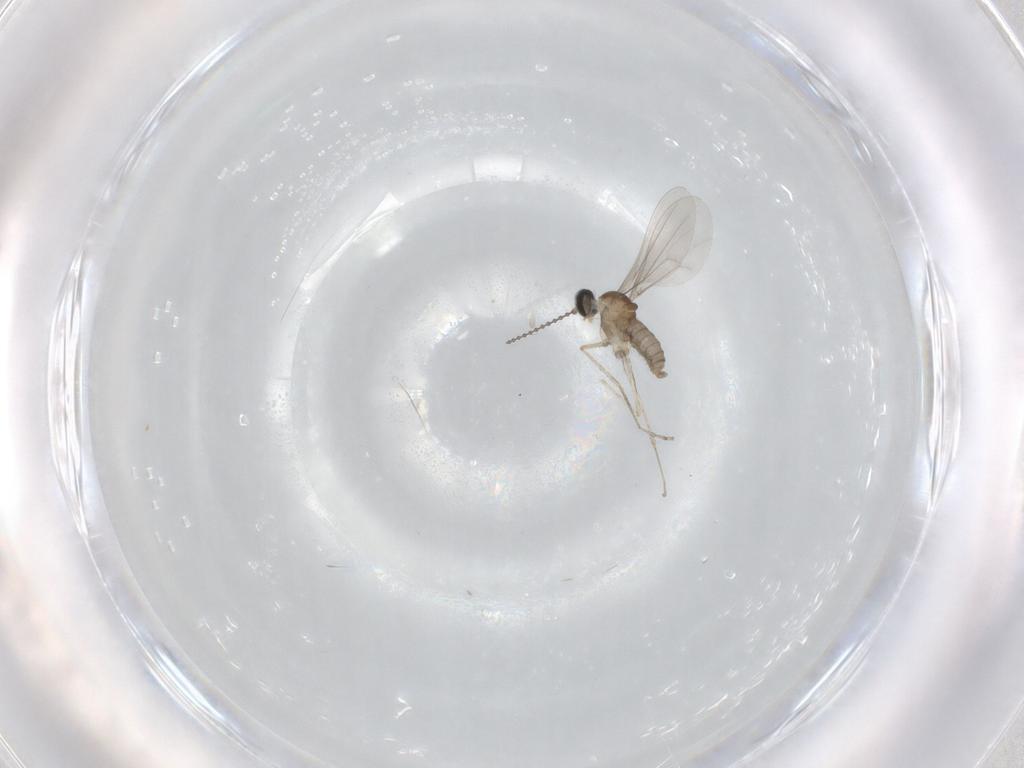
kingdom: Animalia
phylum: Arthropoda
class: Insecta
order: Diptera
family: Cecidomyiidae
